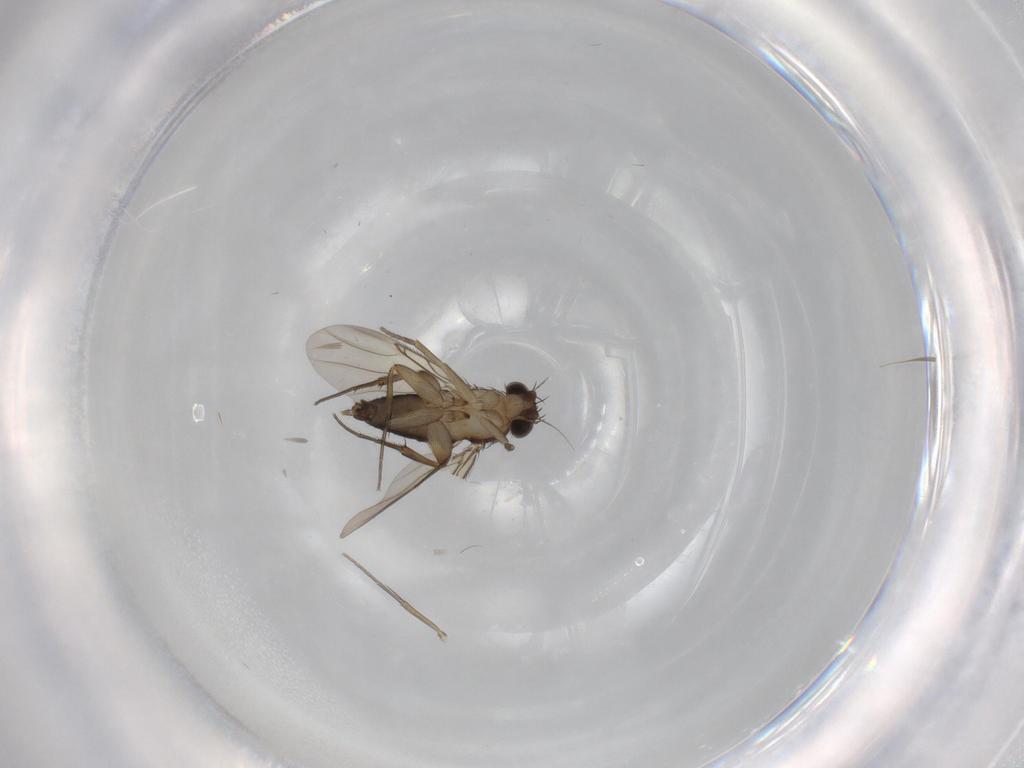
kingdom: Animalia
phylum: Arthropoda
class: Insecta
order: Diptera
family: Phoridae
